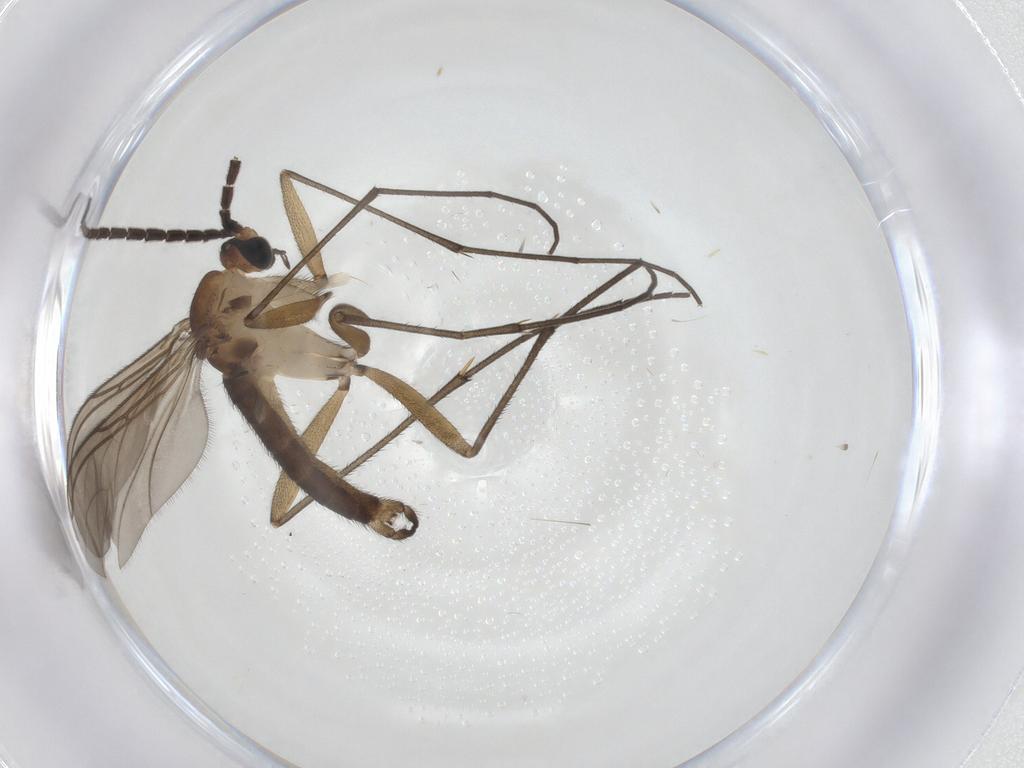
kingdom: Animalia
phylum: Arthropoda
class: Insecta
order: Diptera
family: Sciaridae
